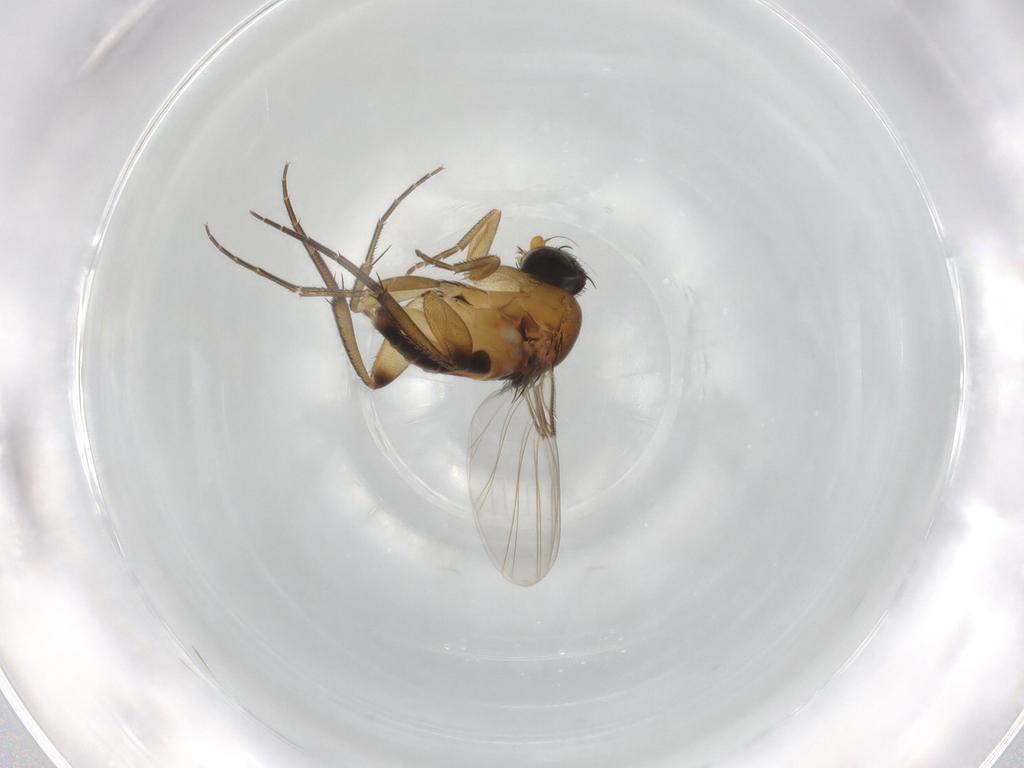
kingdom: Animalia
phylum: Arthropoda
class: Insecta
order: Diptera
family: Phoridae
